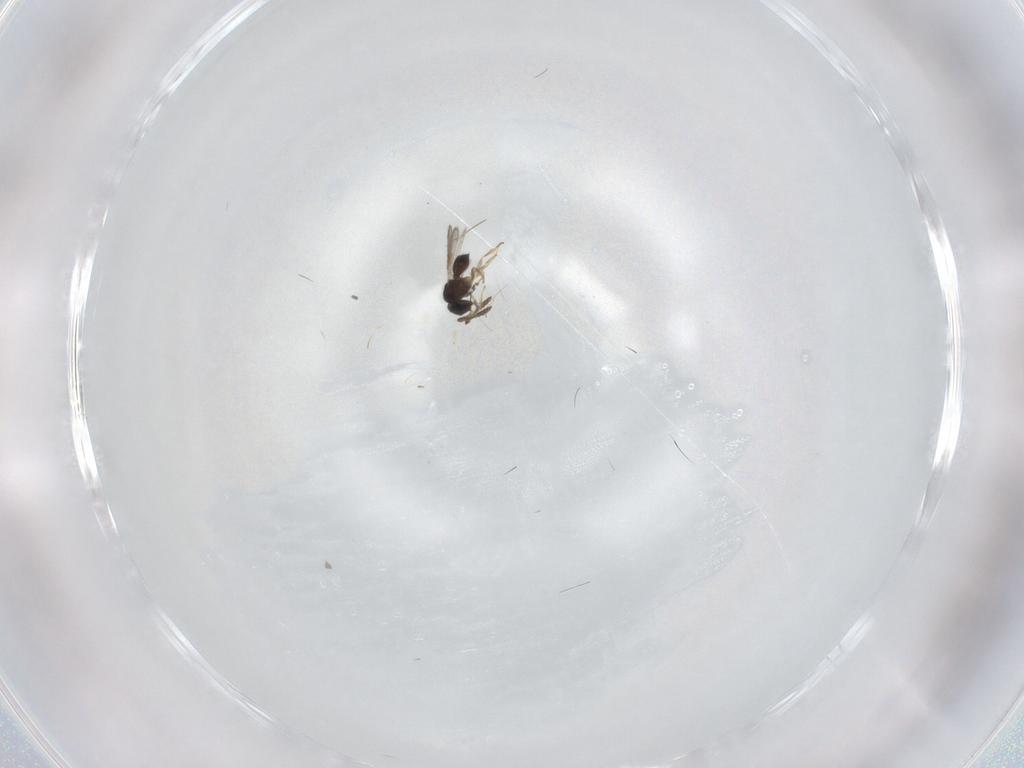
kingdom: Animalia
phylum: Arthropoda
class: Insecta
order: Hymenoptera
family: Scelionidae
